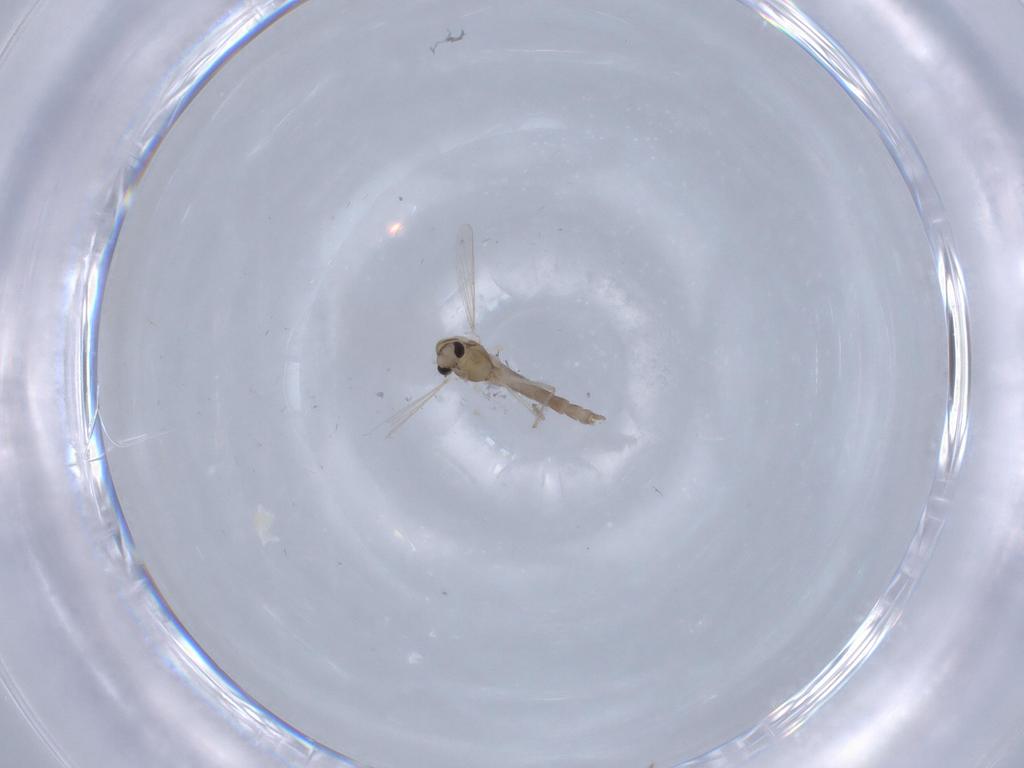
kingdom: Animalia
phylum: Arthropoda
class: Insecta
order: Diptera
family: Chironomidae
